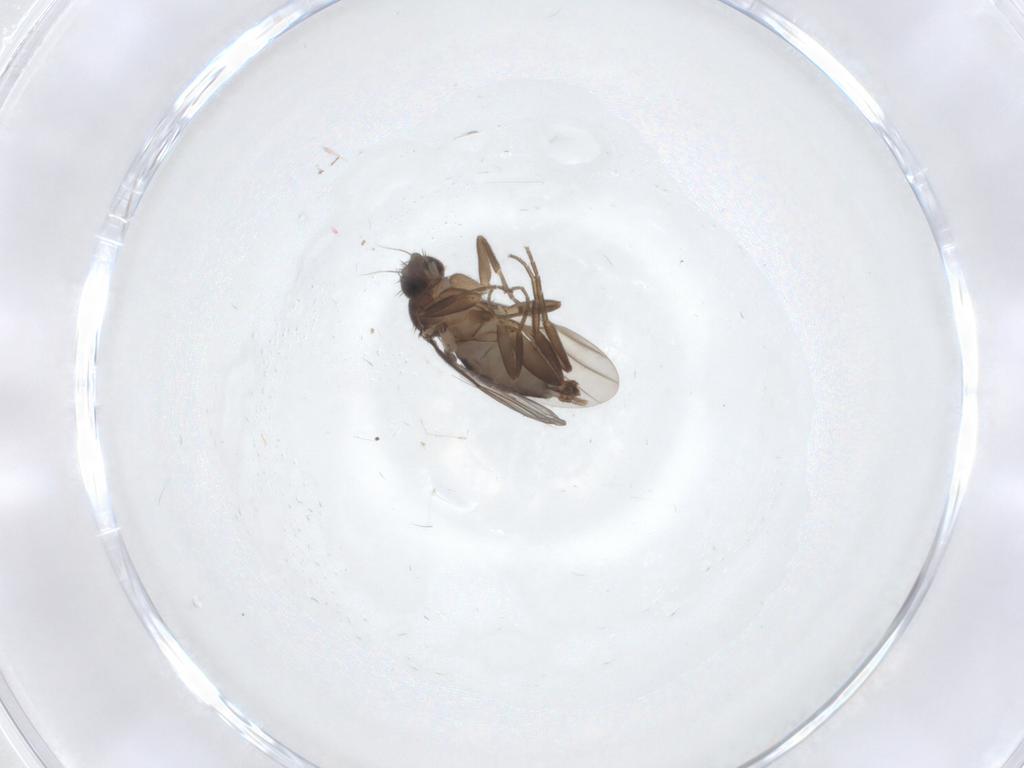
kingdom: Animalia
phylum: Arthropoda
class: Insecta
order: Diptera
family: Phoridae
